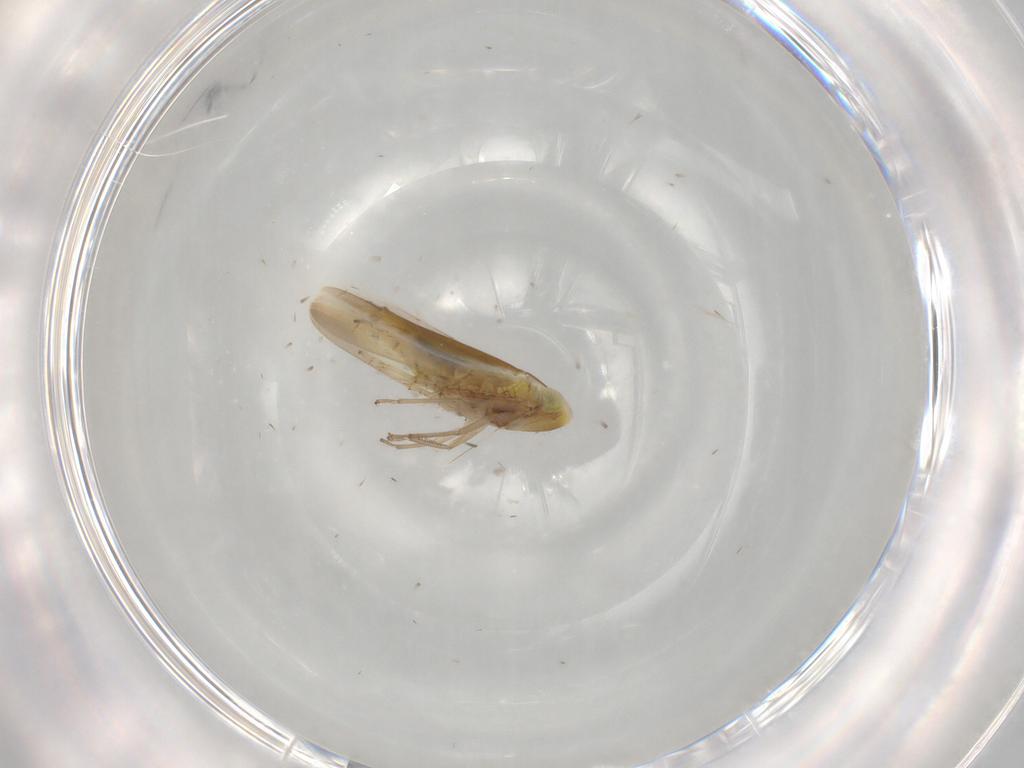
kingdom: Animalia
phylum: Arthropoda
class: Insecta
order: Hemiptera
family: Cicadellidae
